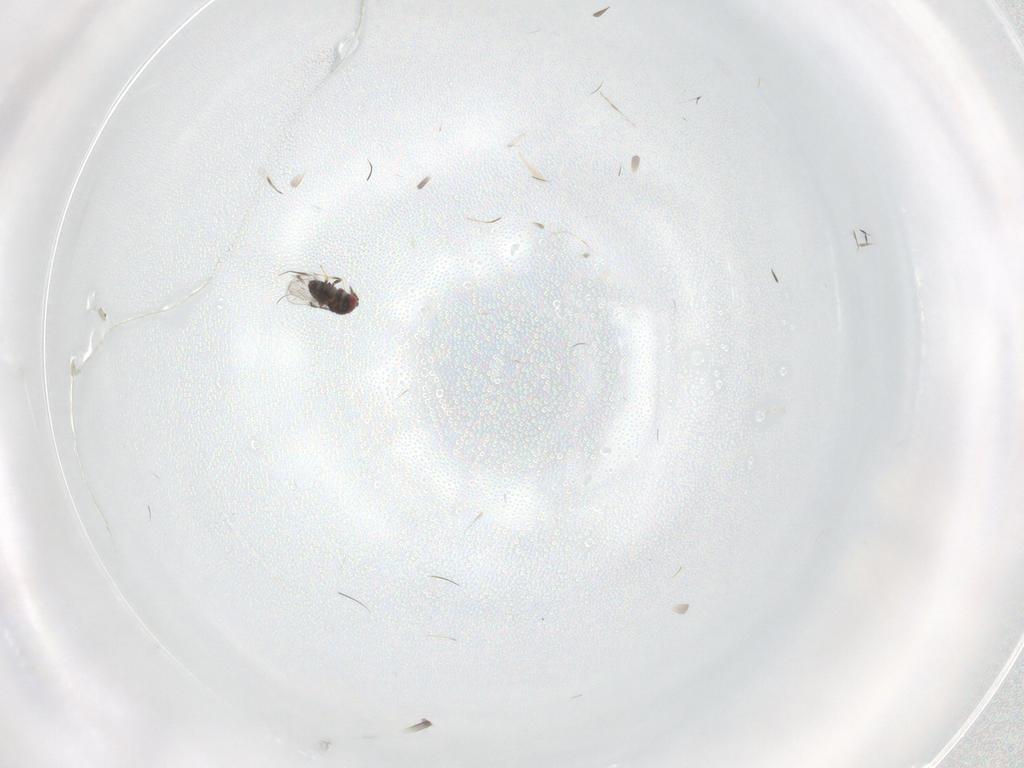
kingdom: Animalia
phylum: Arthropoda
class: Insecta
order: Hymenoptera
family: Trichogrammatidae
